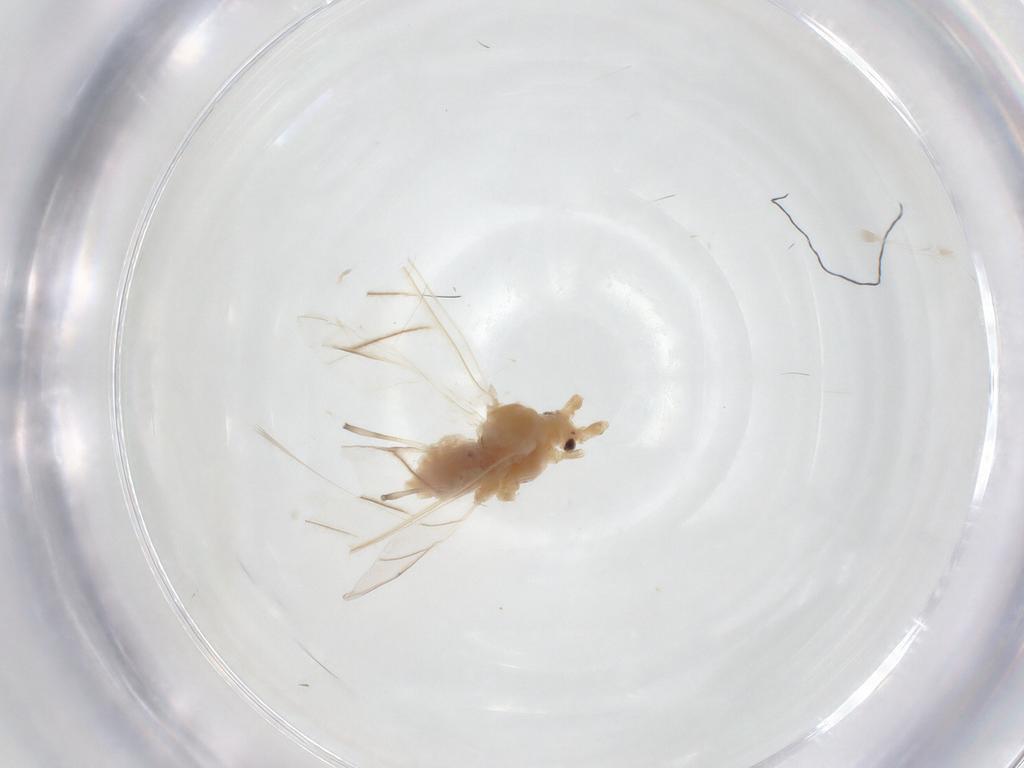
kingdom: Animalia
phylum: Arthropoda
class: Insecta
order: Hemiptera
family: Aphididae
